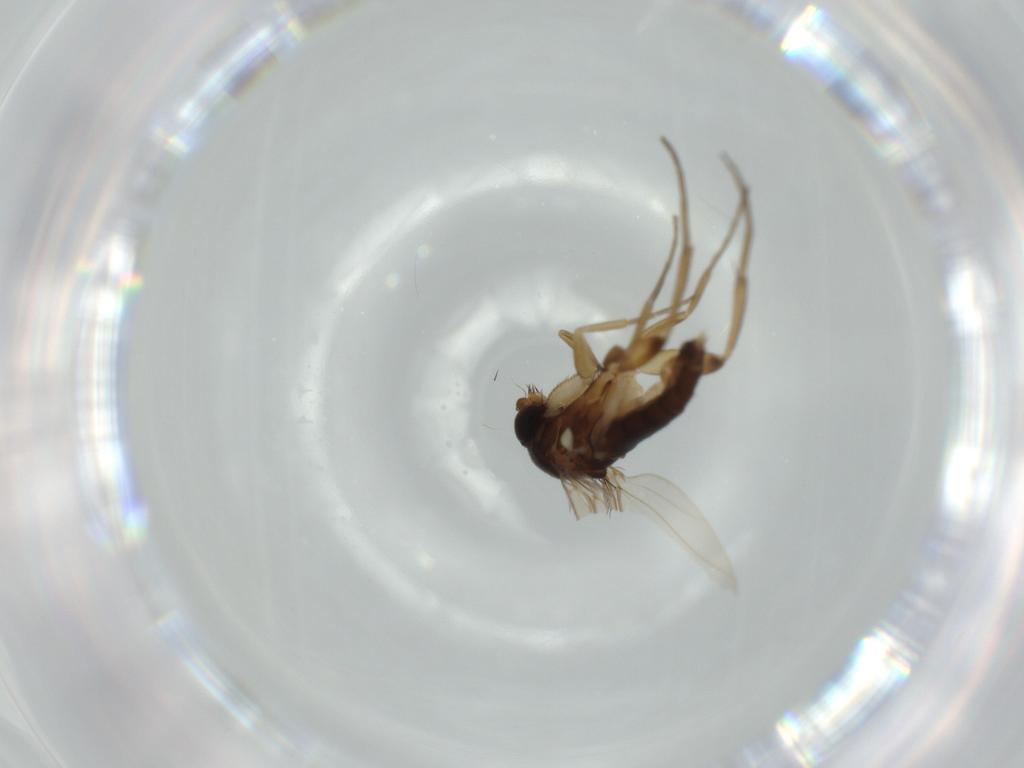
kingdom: Animalia
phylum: Arthropoda
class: Insecta
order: Diptera
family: Phoridae
